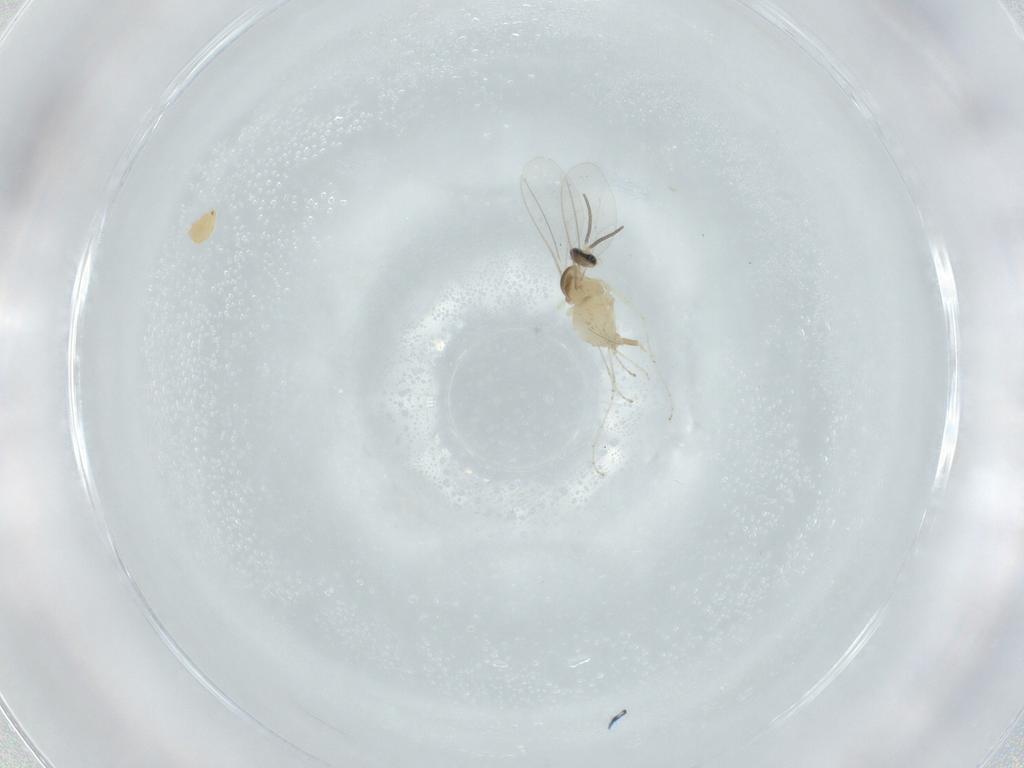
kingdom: Animalia
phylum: Arthropoda
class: Insecta
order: Diptera
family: Cecidomyiidae
